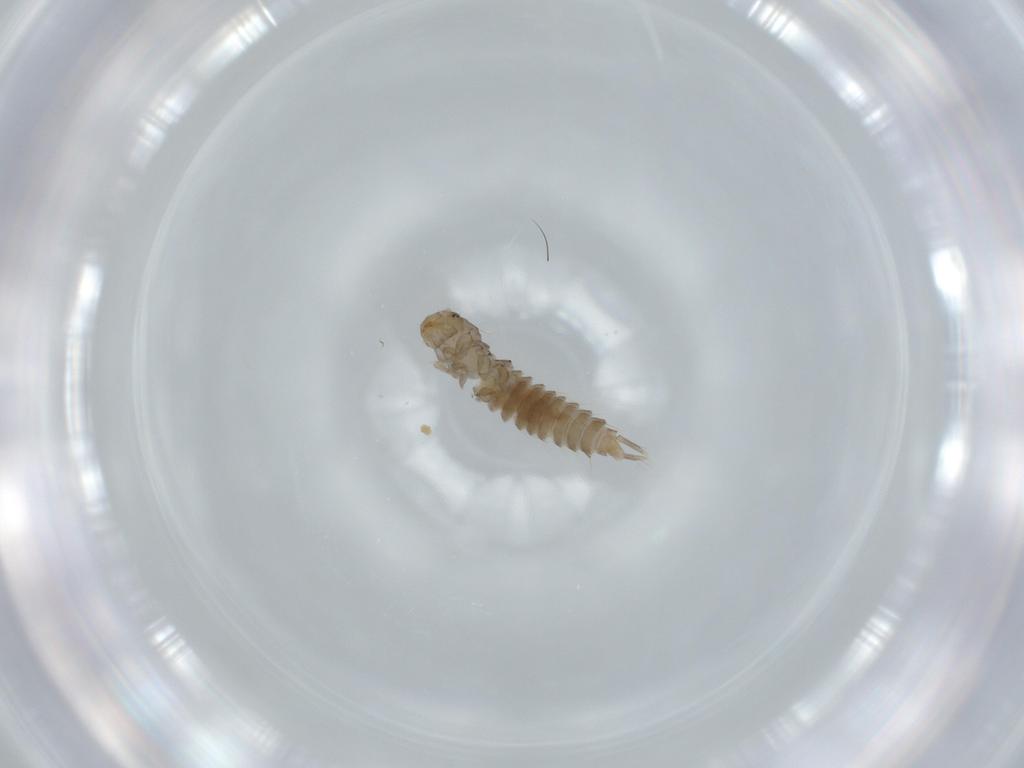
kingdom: Animalia
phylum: Arthropoda
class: Insecta
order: Coleoptera
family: Staphylinidae
